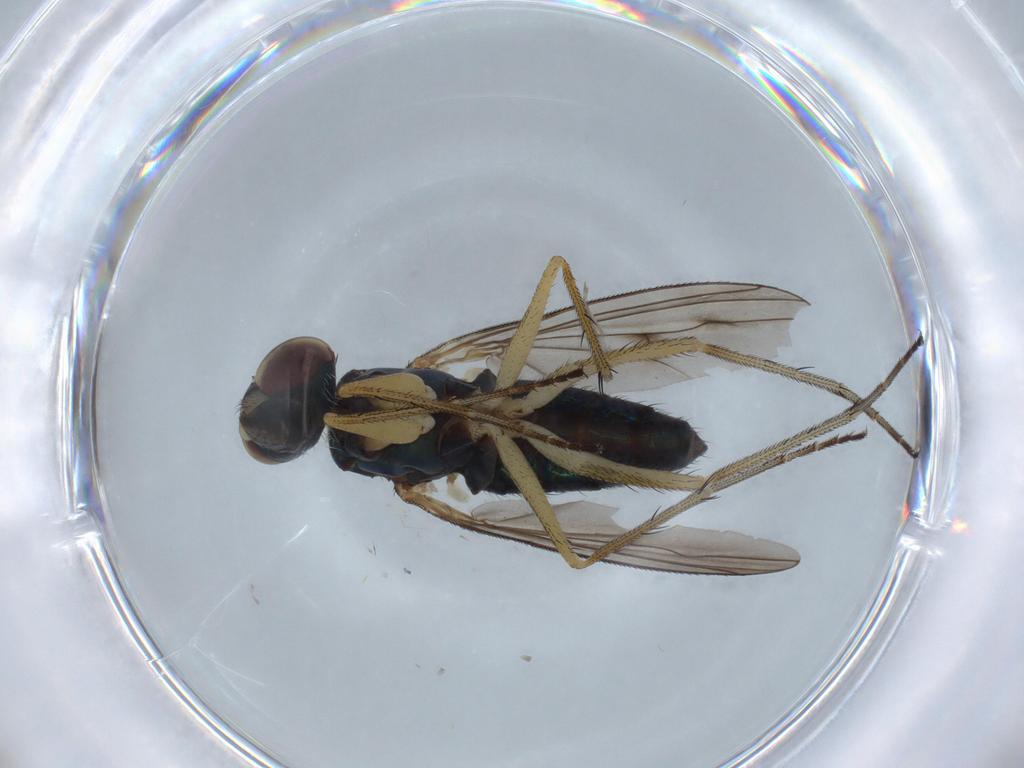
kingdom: Animalia
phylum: Arthropoda
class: Insecta
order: Diptera
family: Dolichopodidae
